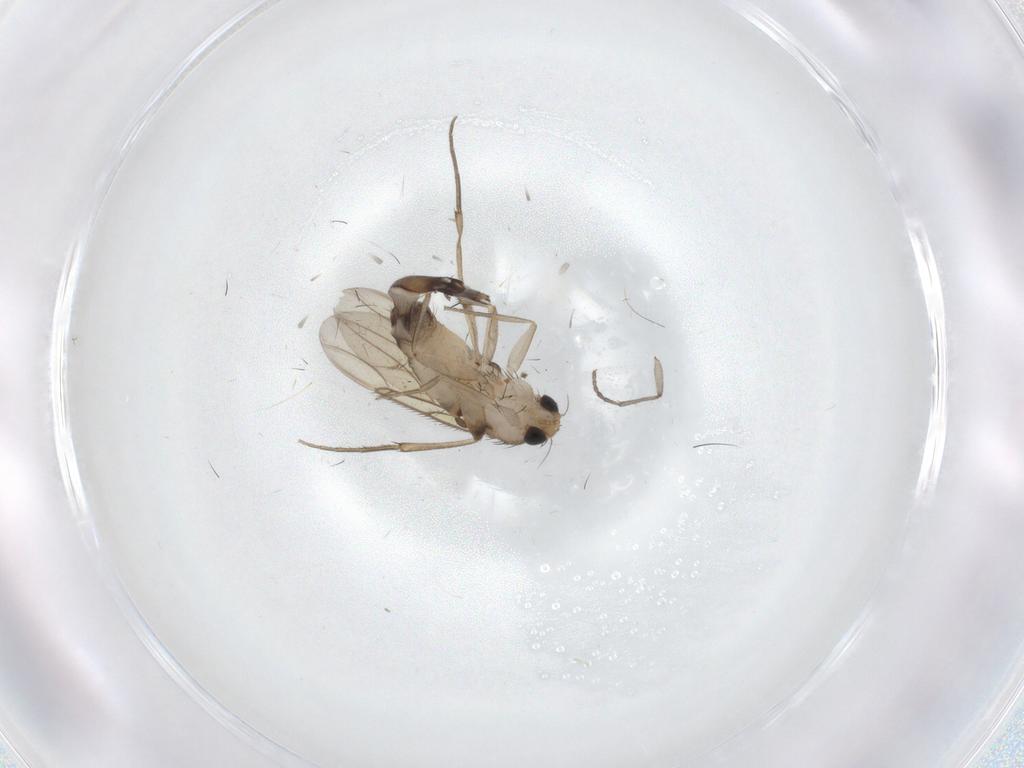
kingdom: Animalia
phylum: Arthropoda
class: Insecta
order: Diptera
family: Phoridae
